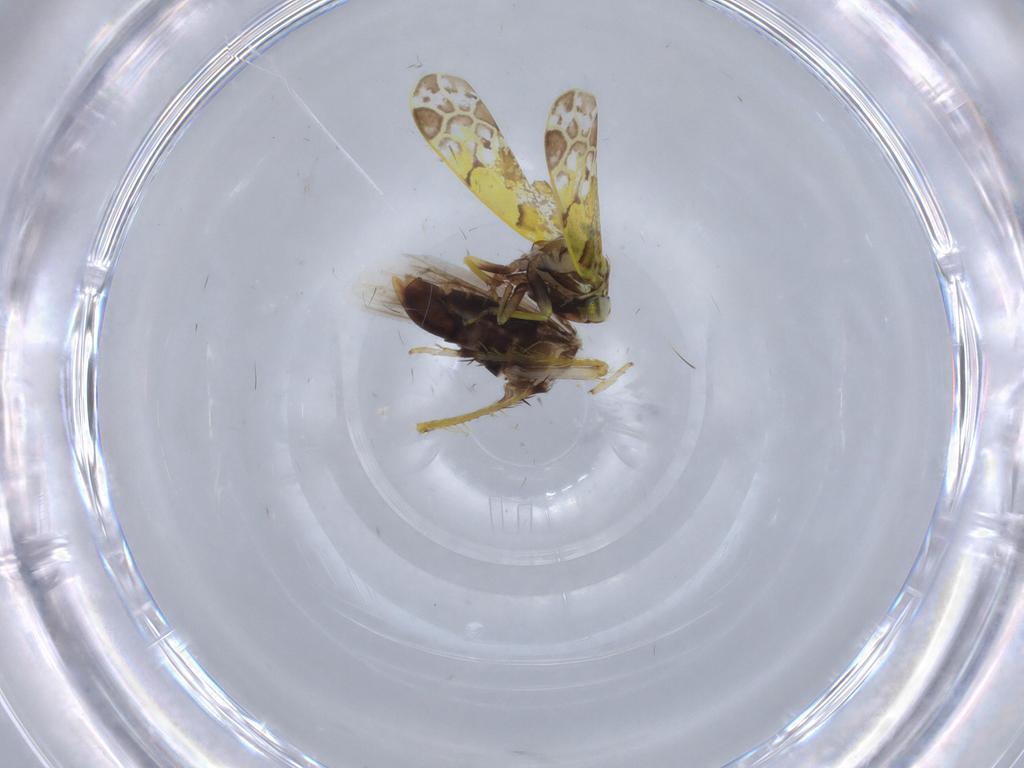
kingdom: Animalia
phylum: Arthropoda
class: Insecta
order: Hemiptera
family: Cicadellidae
